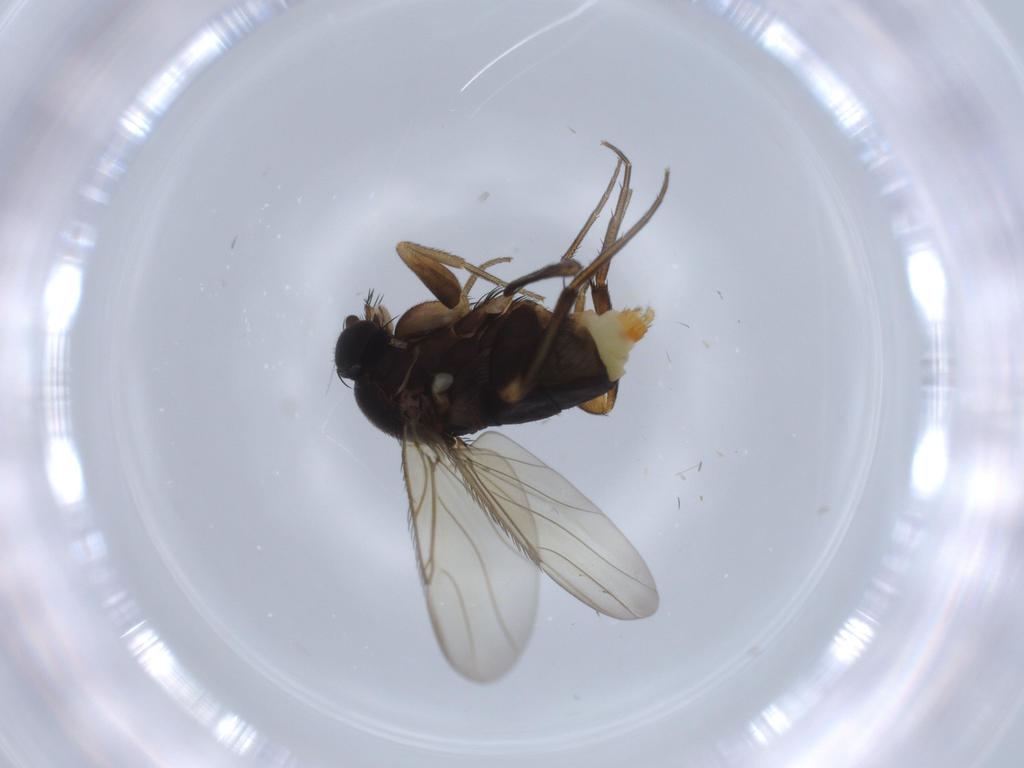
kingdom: Animalia
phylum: Arthropoda
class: Insecta
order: Diptera
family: Phoridae
